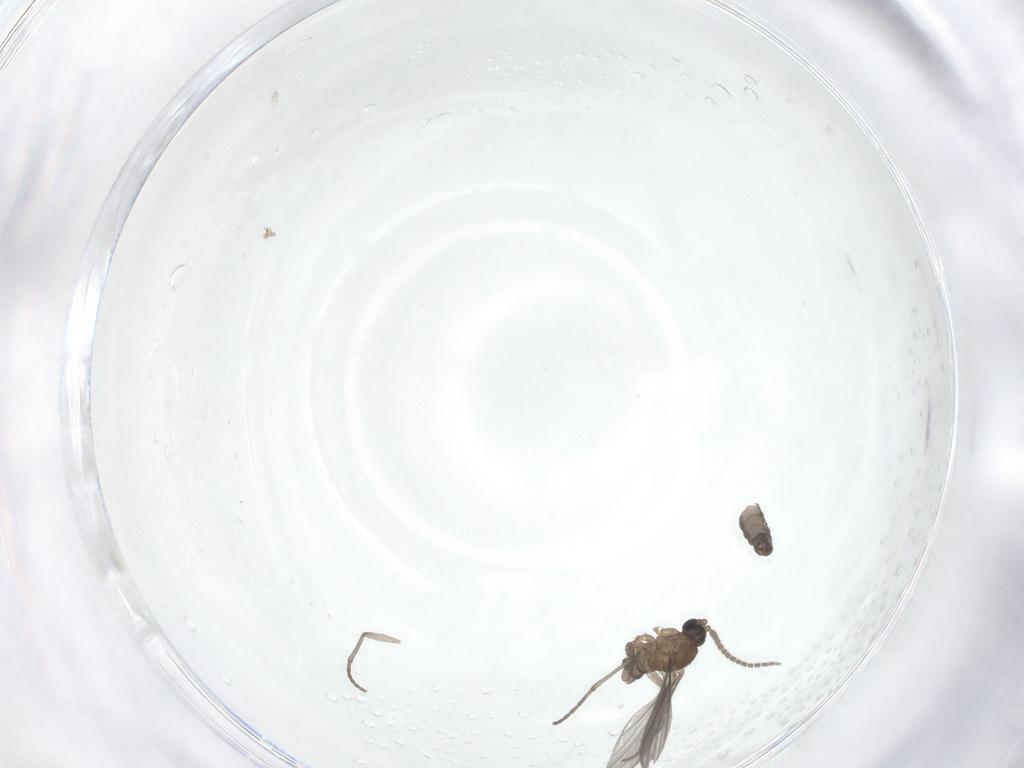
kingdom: Animalia
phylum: Arthropoda
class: Insecta
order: Diptera
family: Sciaridae
